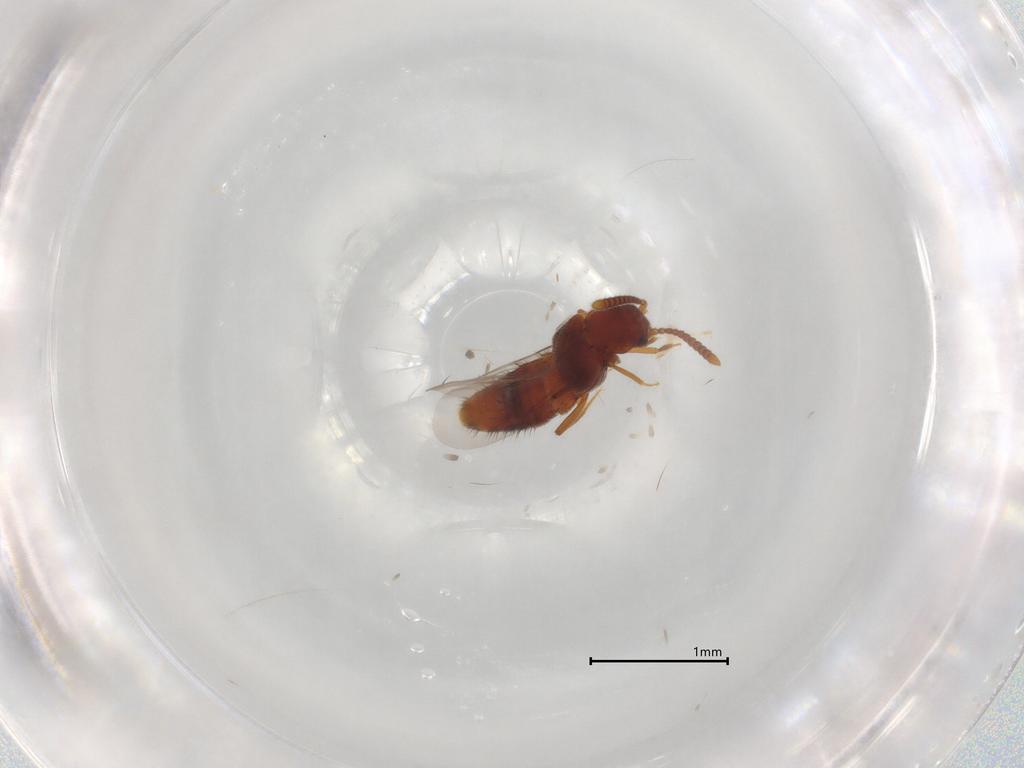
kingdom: Animalia
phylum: Arthropoda
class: Insecta
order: Coleoptera
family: Staphylinidae
